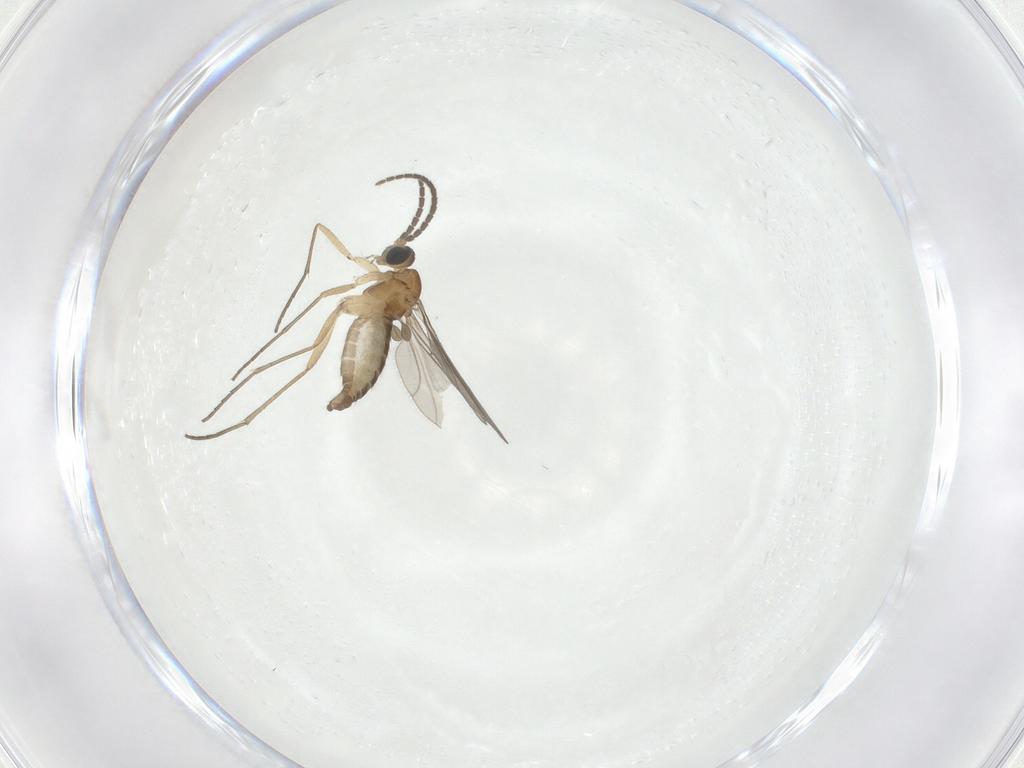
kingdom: Animalia
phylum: Arthropoda
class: Insecta
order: Diptera
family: Sciaridae
